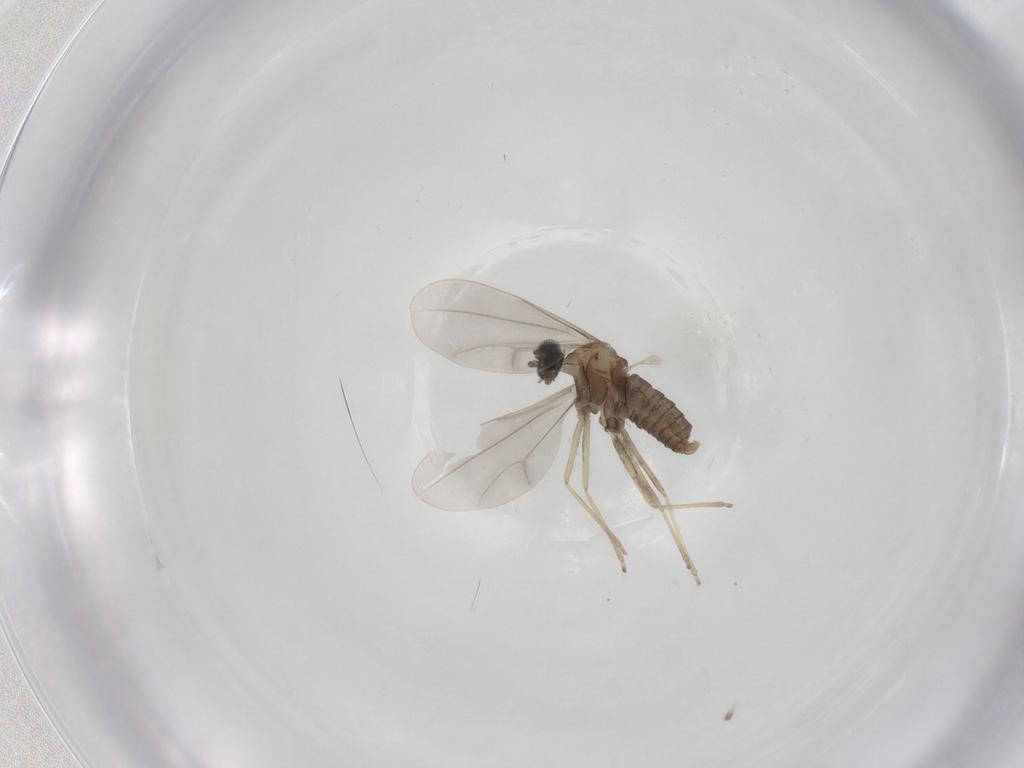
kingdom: Animalia
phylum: Arthropoda
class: Insecta
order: Diptera
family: Cecidomyiidae
